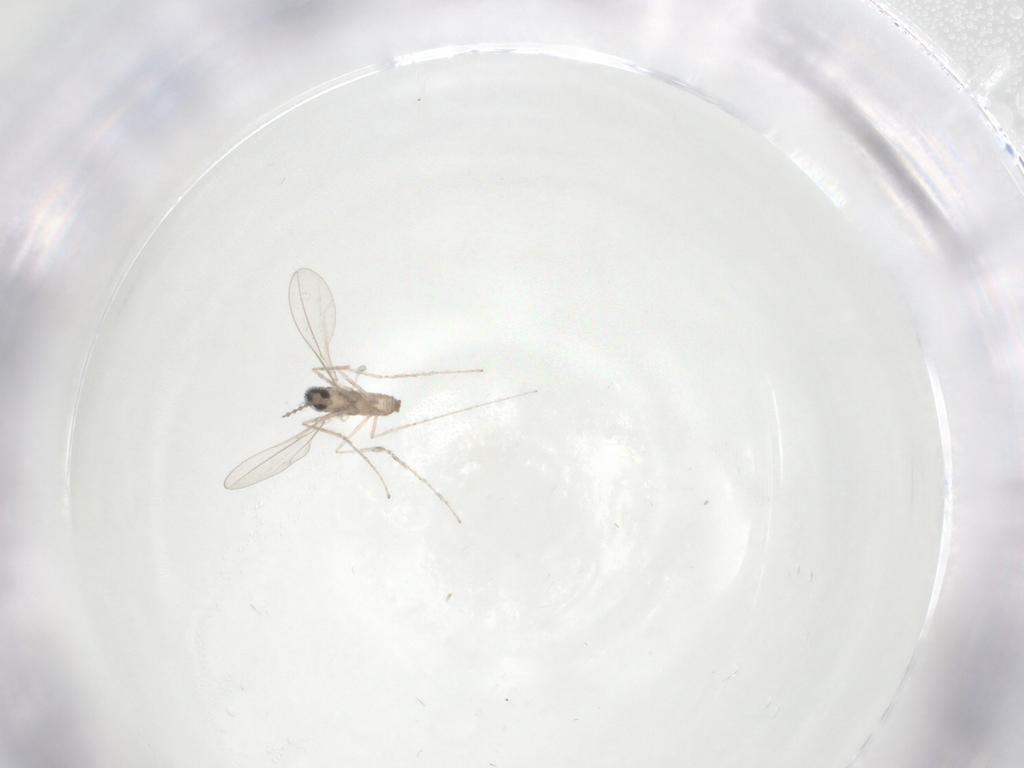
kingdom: Animalia
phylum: Arthropoda
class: Insecta
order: Diptera
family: Cecidomyiidae
